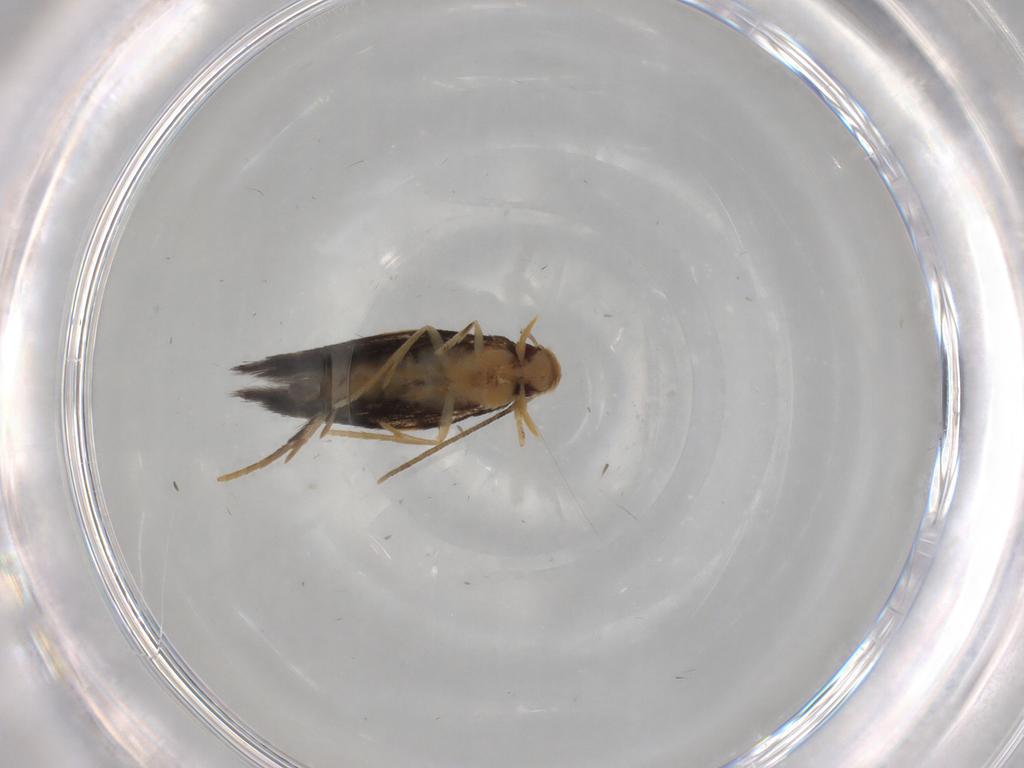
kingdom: Animalia
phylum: Arthropoda
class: Insecta
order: Lepidoptera
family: Gelechiidae
